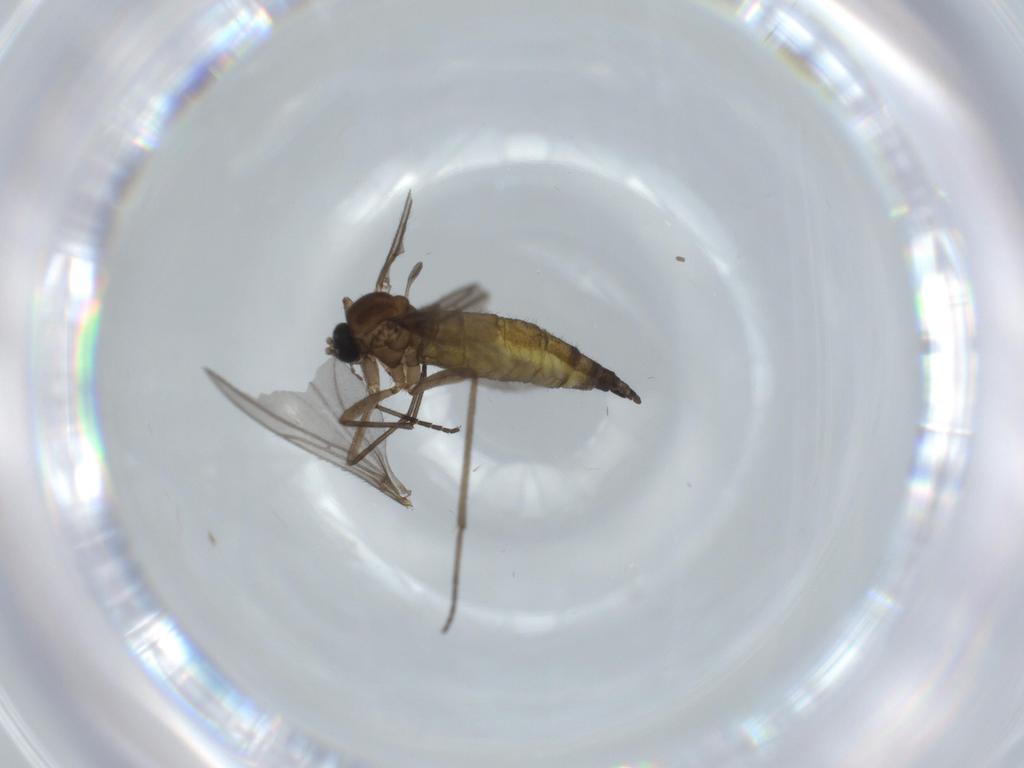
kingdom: Animalia
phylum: Arthropoda
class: Insecta
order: Diptera
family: Sciaridae
